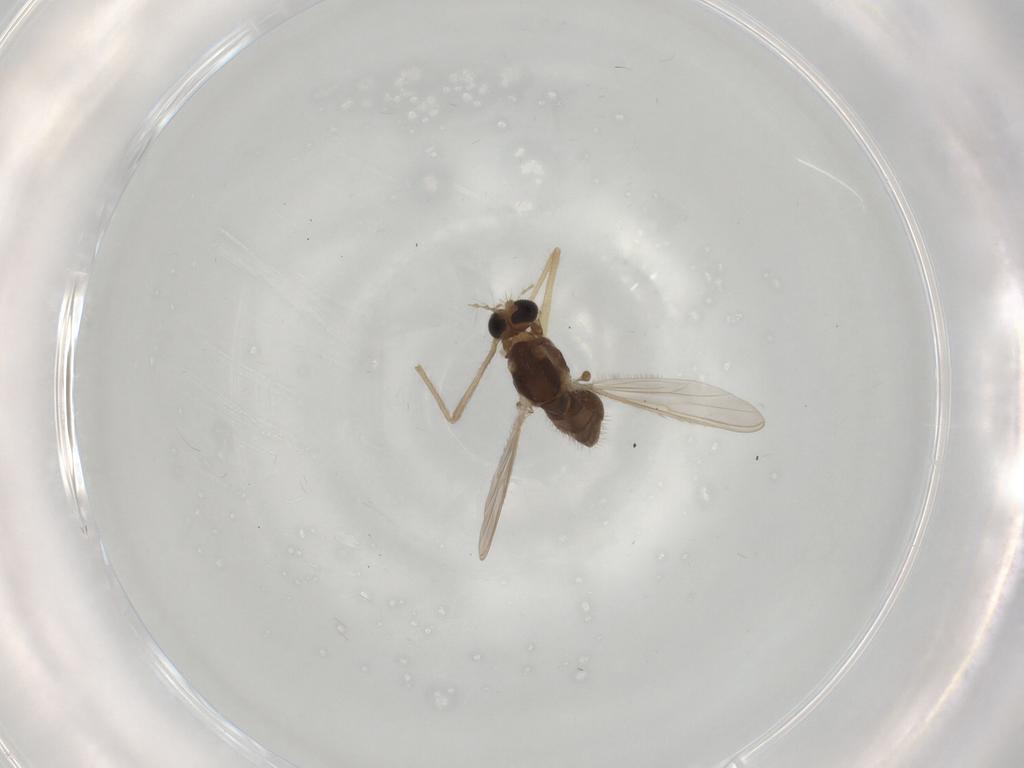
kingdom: Animalia
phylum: Arthropoda
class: Insecta
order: Diptera
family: Chironomidae
